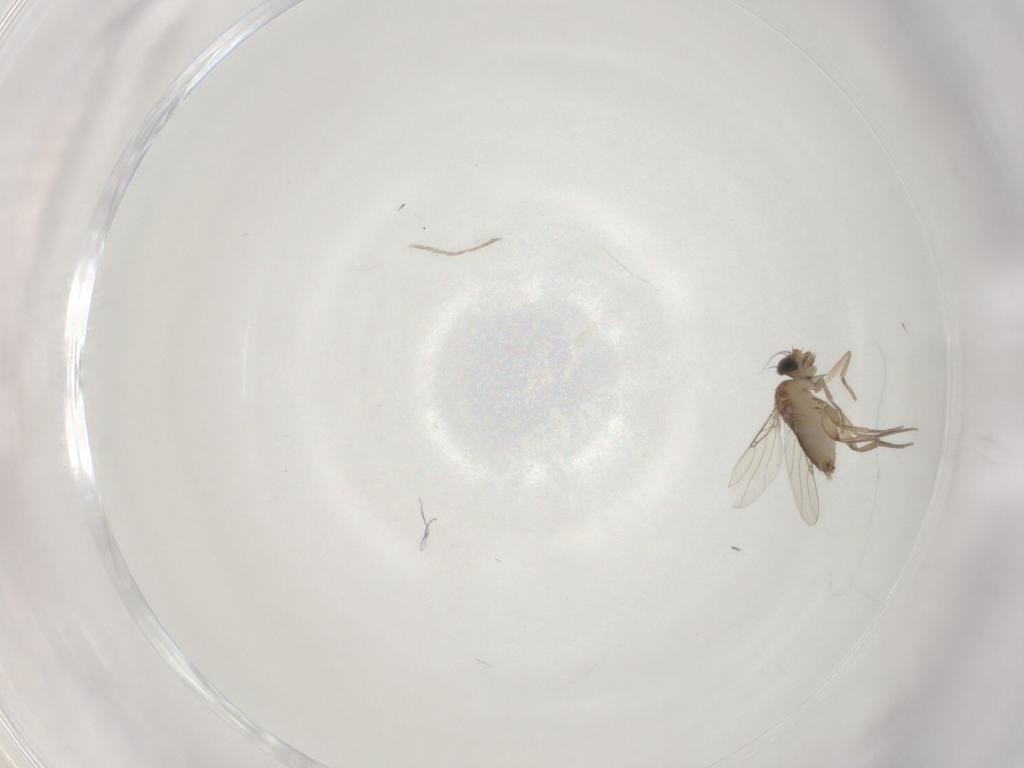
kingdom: Animalia
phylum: Arthropoda
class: Insecta
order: Diptera
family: Phoridae
